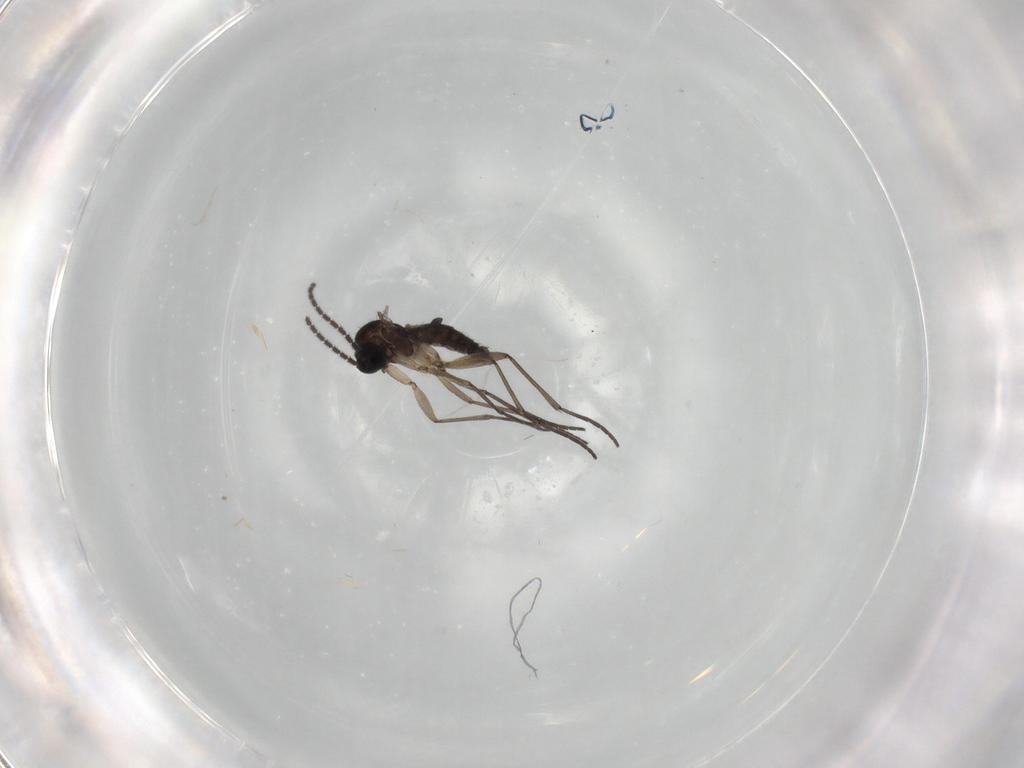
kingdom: Animalia
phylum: Arthropoda
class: Insecta
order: Diptera
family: Sciaridae
